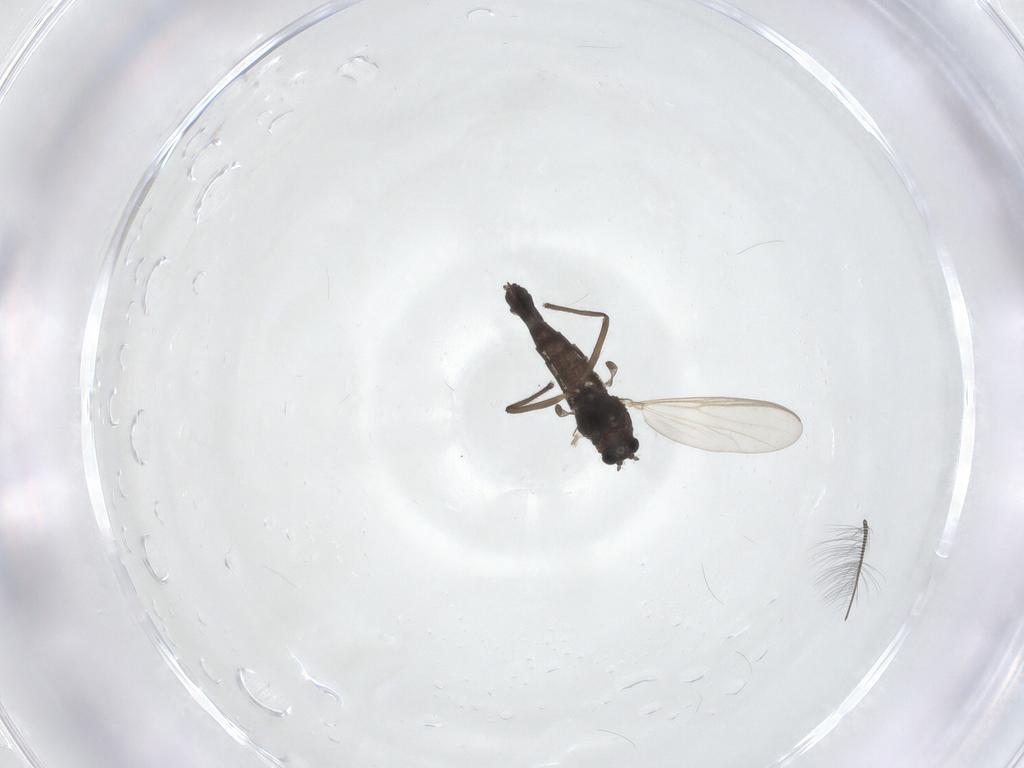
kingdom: Animalia
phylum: Arthropoda
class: Insecta
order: Diptera
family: Chironomidae
